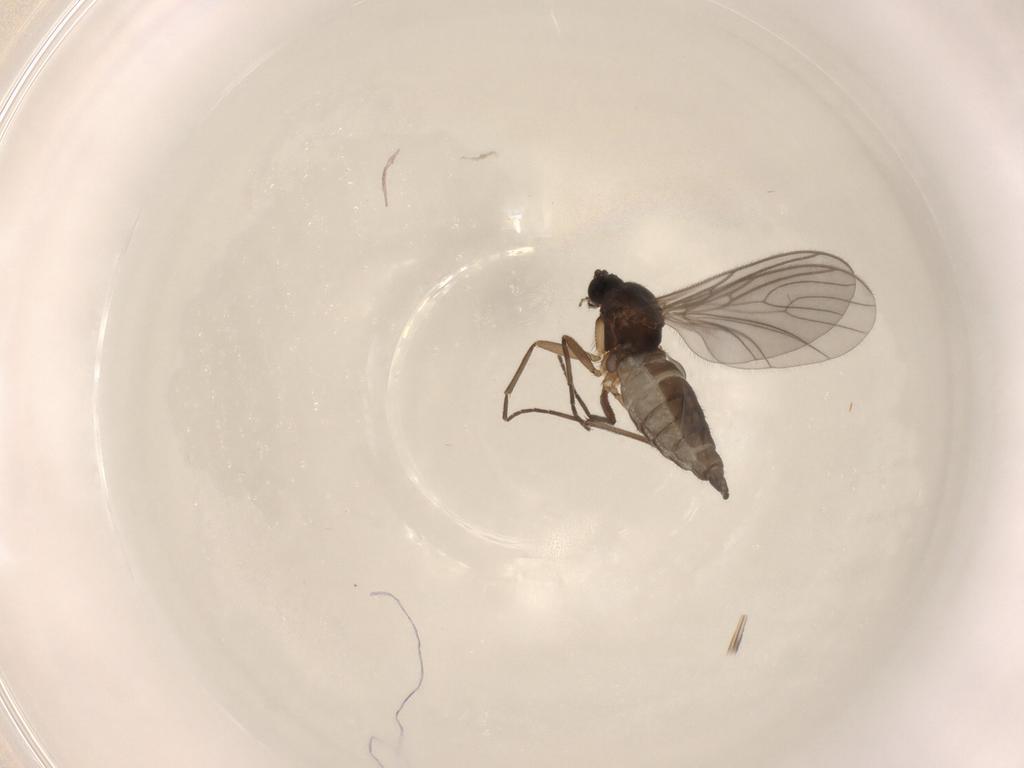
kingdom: Animalia
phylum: Arthropoda
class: Insecta
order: Diptera
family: Sciaridae
